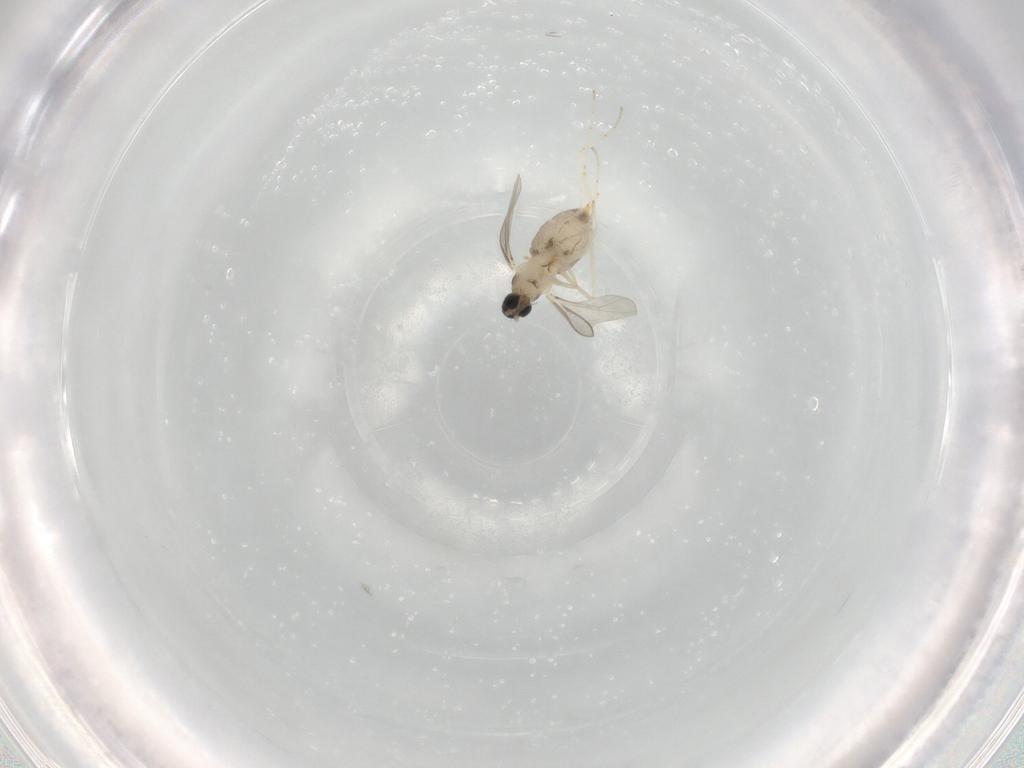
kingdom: Animalia
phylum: Arthropoda
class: Insecta
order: Diptera
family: Cecidomyiidae
